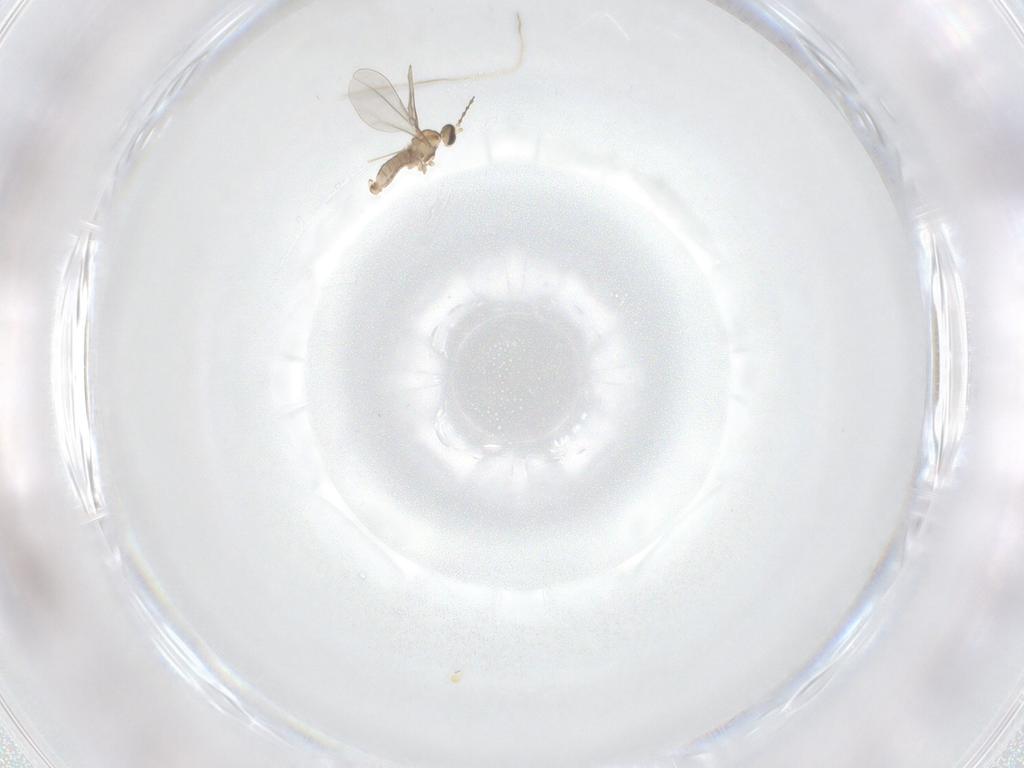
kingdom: Animalia
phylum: Arthropoda
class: Insecta
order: Diptera
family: Cecidomyiidae
